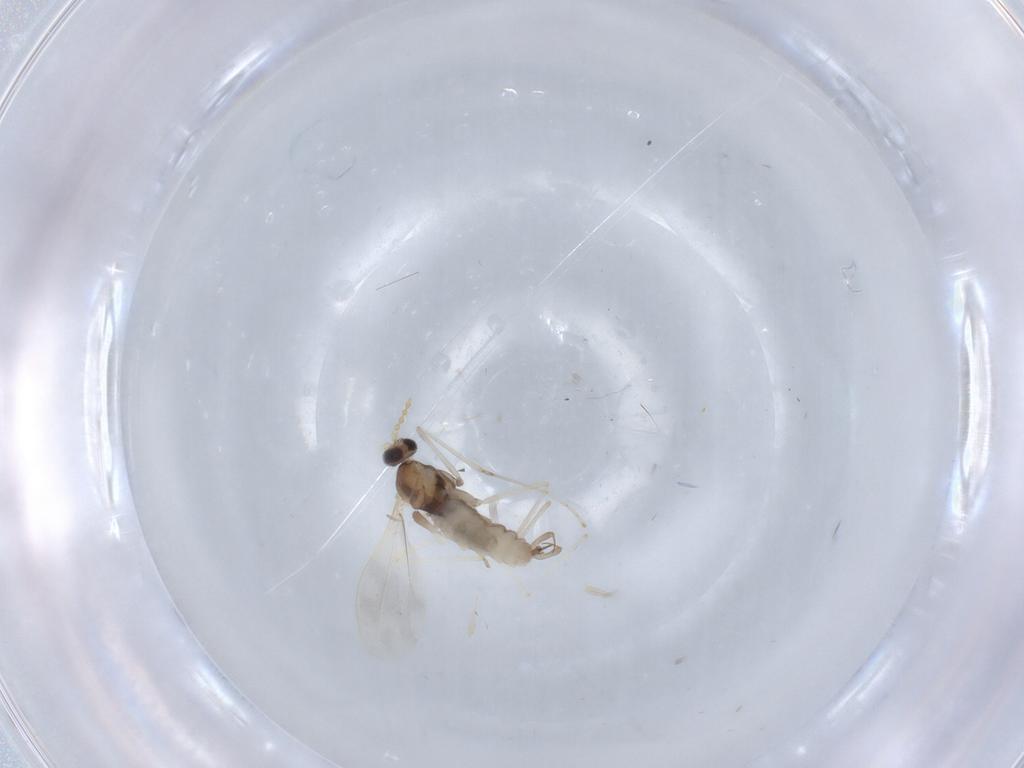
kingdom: Animalia
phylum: Arthropoda
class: Insecta
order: Diptera
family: Cecidomyiidae
